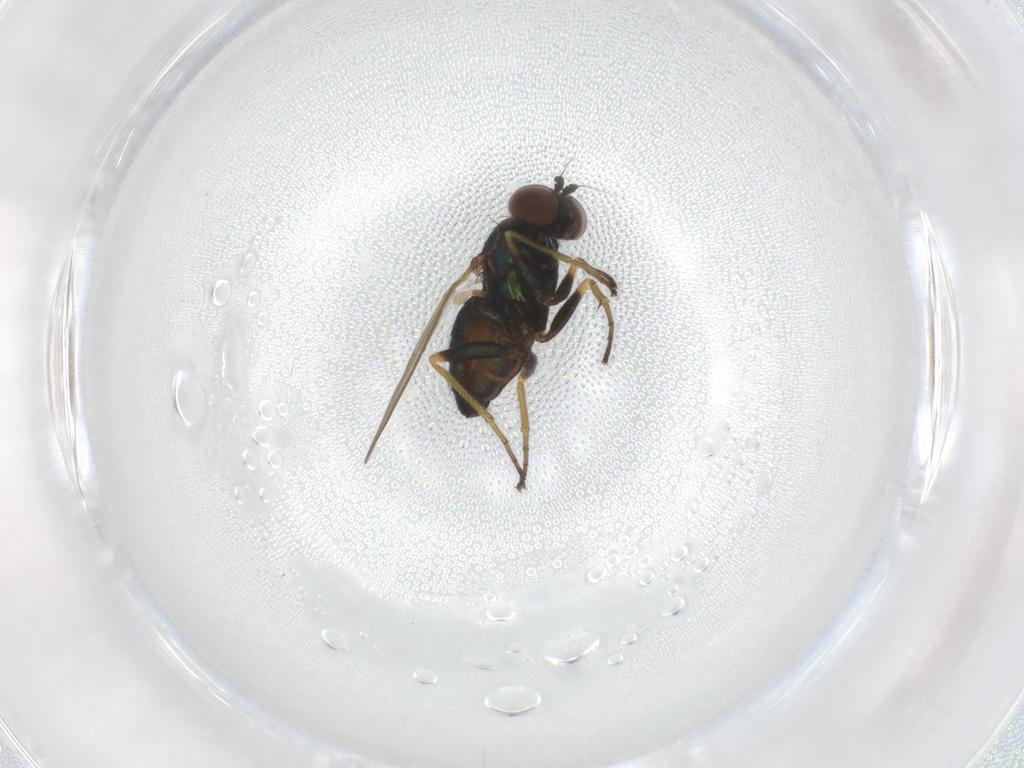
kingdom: Animalia
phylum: Arthropoda
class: Insecta
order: Diptera
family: Dolichopodidae
